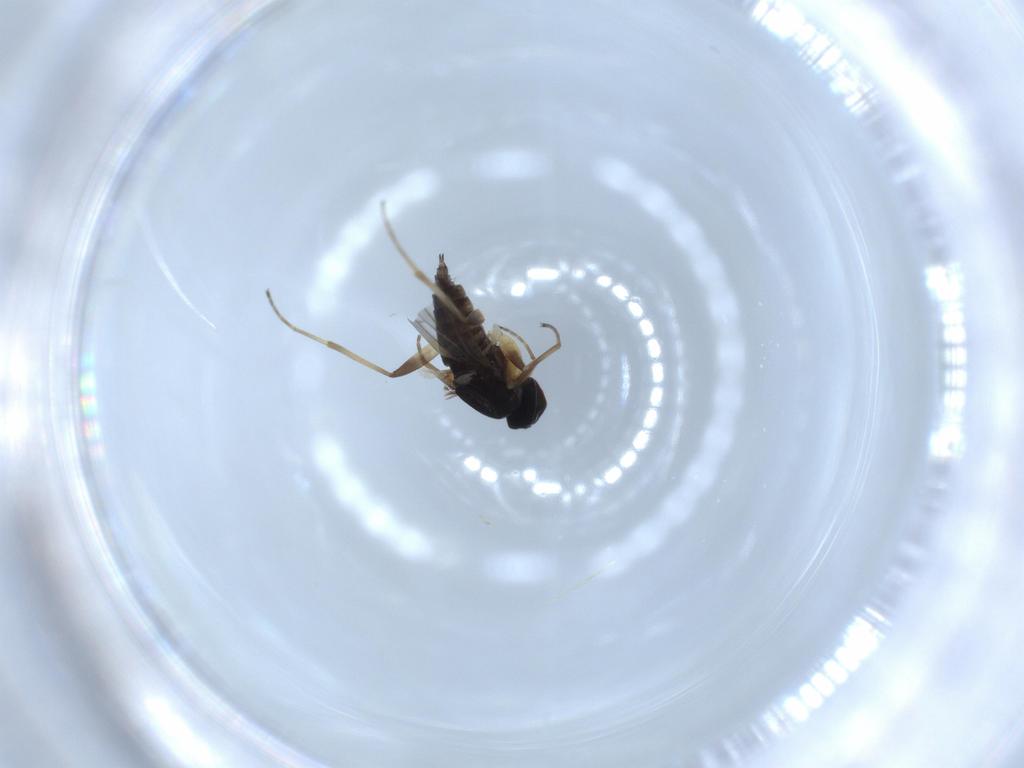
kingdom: Animalia
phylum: Arthropoda
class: Insecta
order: Diptera
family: Hybotidae
